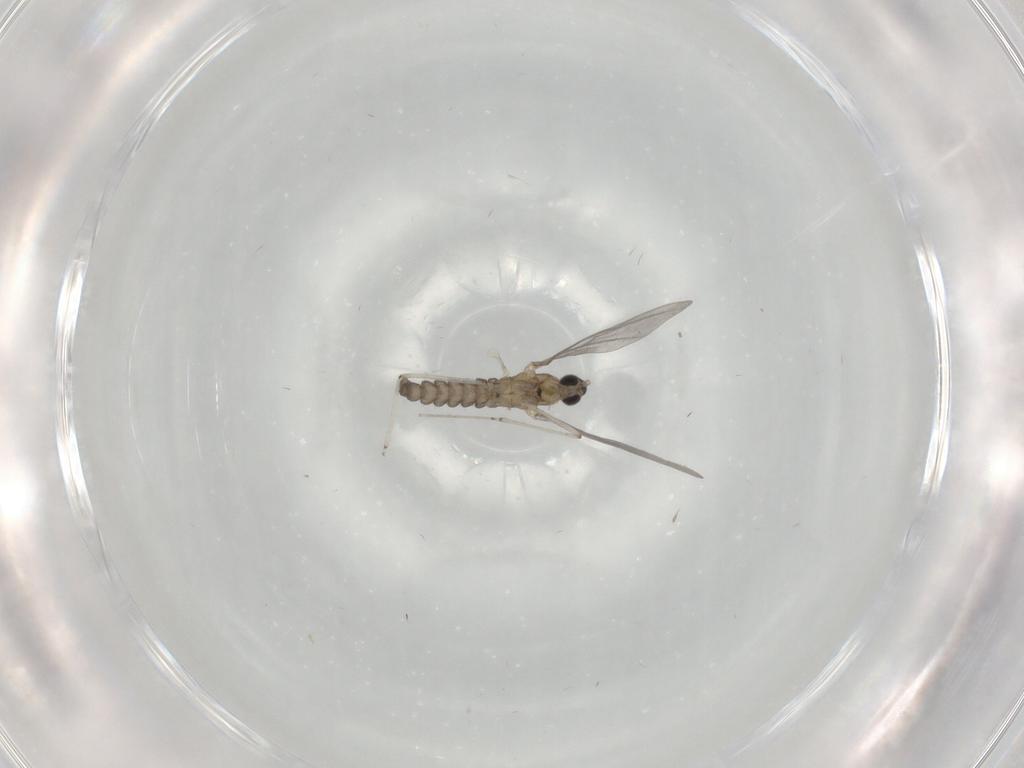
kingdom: Animalia
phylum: Arthropoda
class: Insecta
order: Diptera
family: Cecidomyiidae
